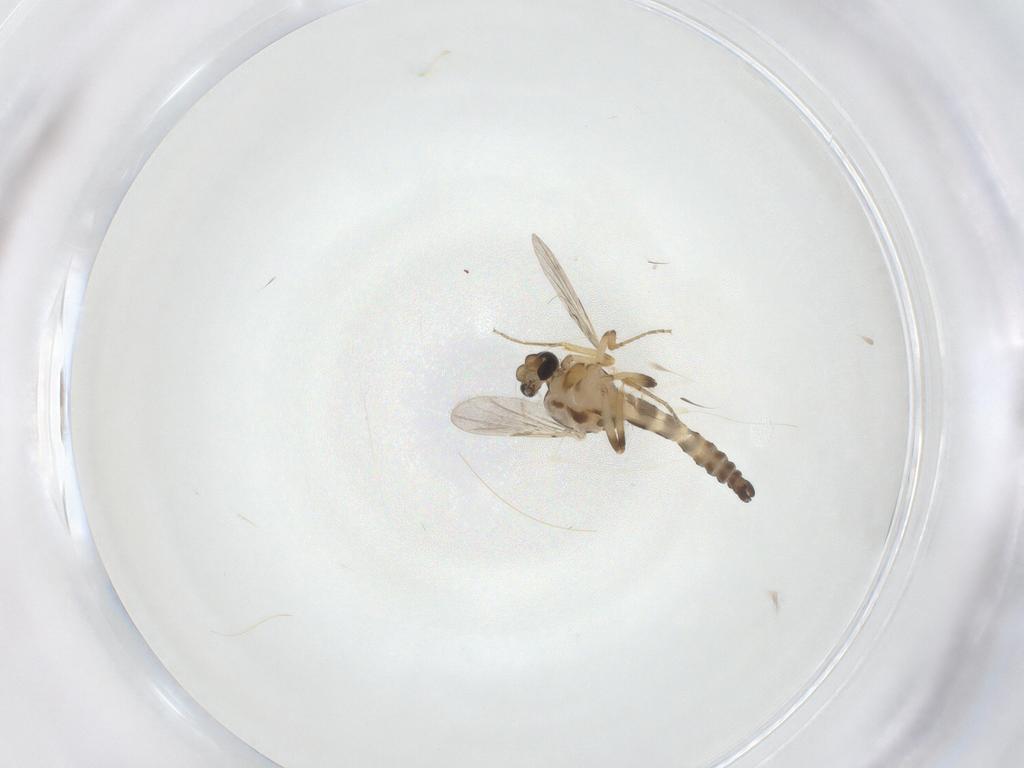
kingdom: Animalia
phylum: Arthropoda
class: Insecta
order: Diptera
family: Ceratopogonidae
